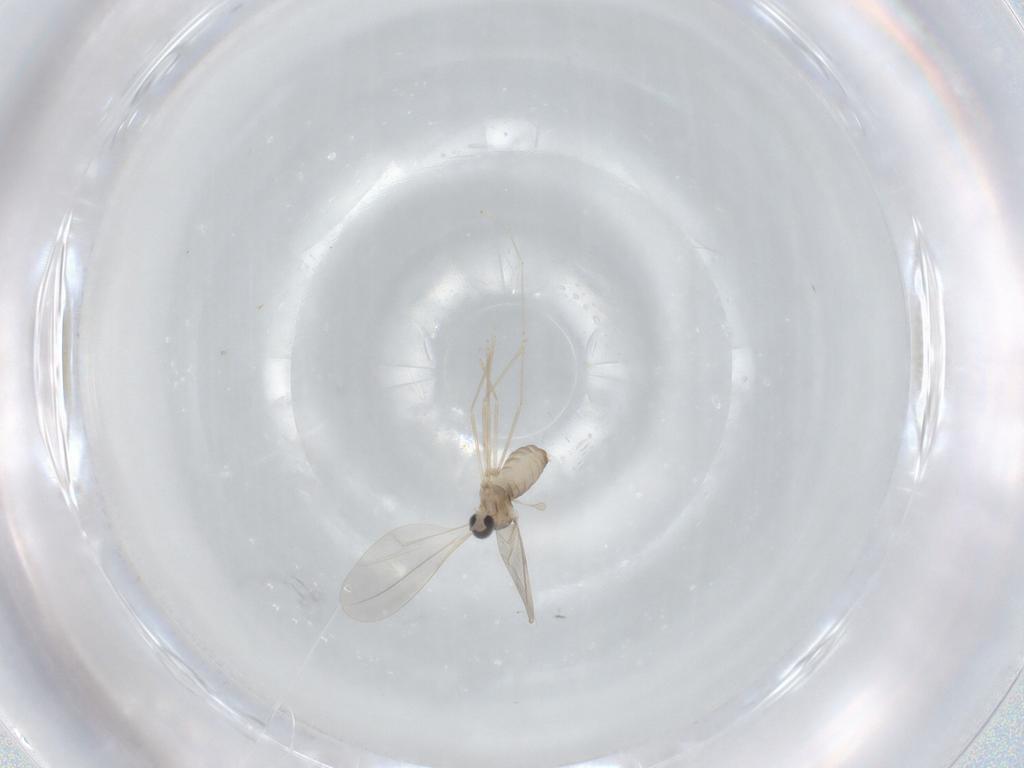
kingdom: Animalia
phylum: Arthropoda
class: Insecta
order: Diptera
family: Cecidomyiidae
